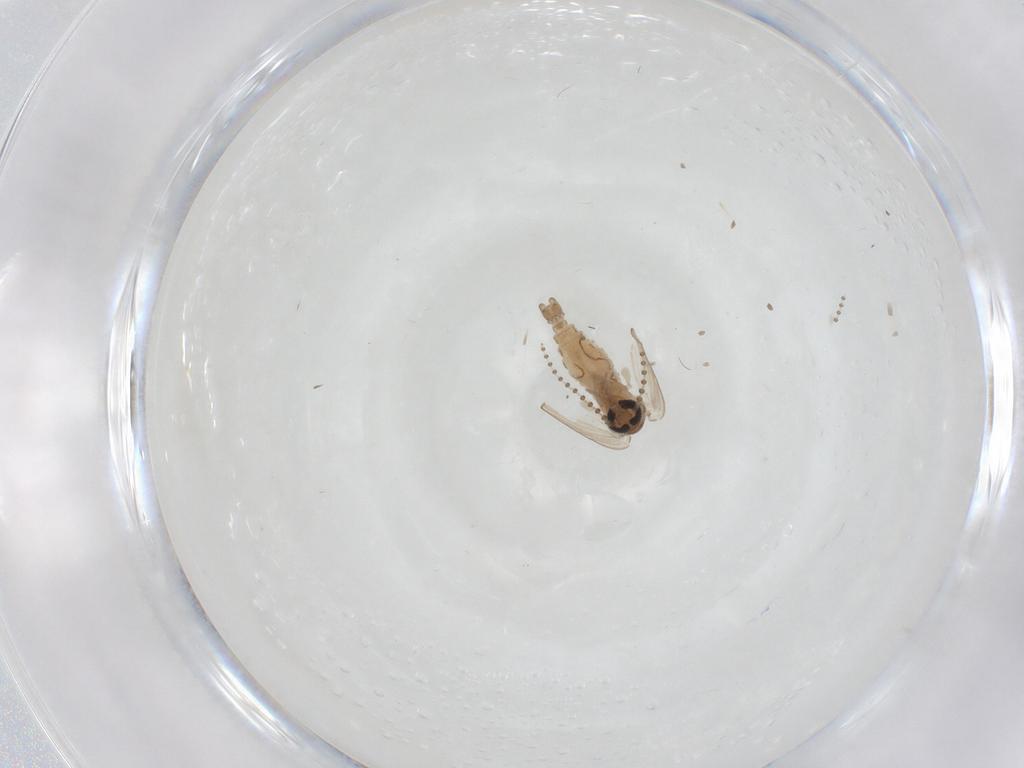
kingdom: Animalia
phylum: Arthropoda
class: Insecta
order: Diptera
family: Psychodidae
